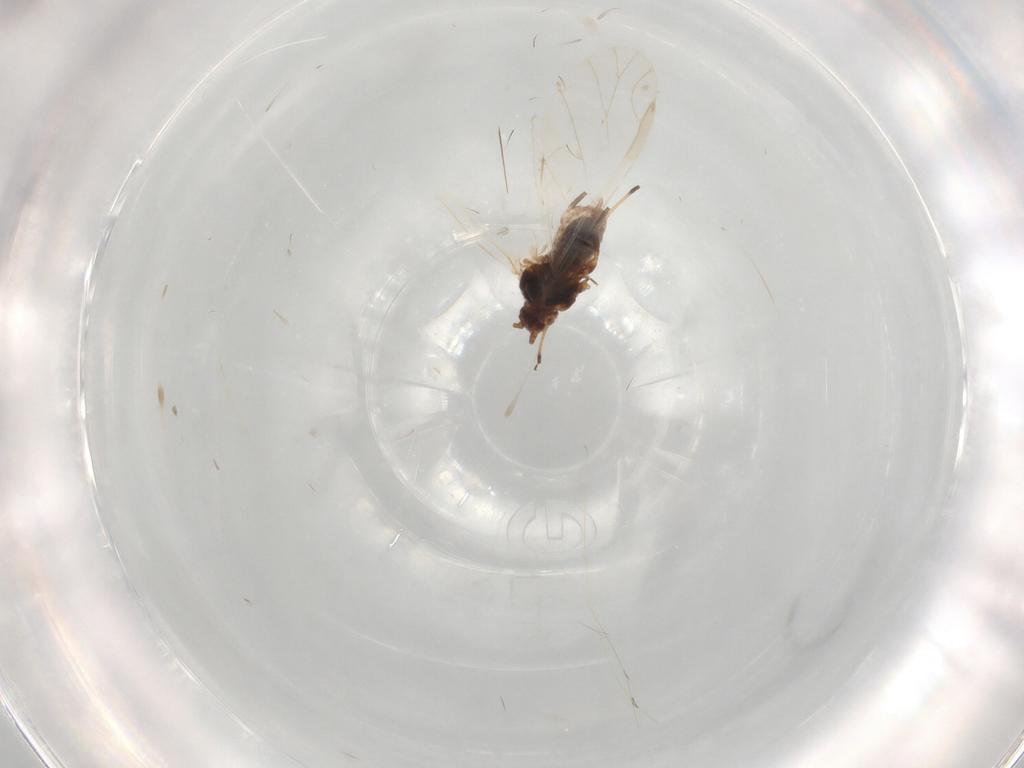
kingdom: Animalia
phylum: Arthropoda
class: Insecta
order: Hemiptera
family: Aphididae
